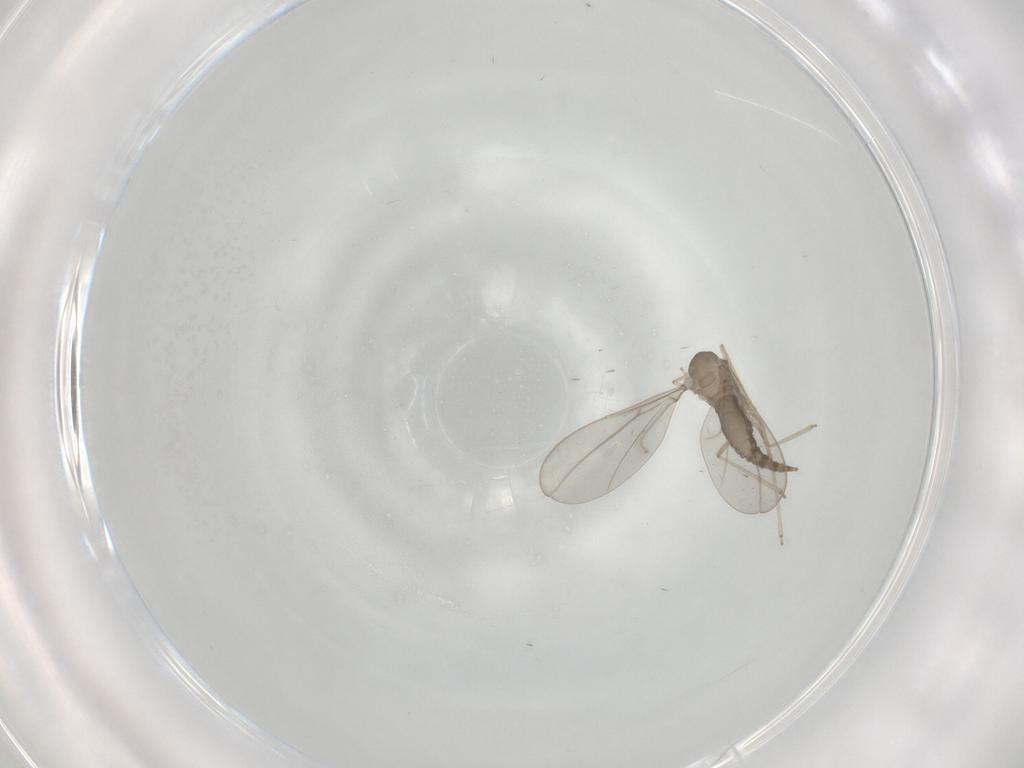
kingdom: Animalia
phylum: Arthropoda
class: Insecta
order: Diptera
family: Cecidomyiidae
